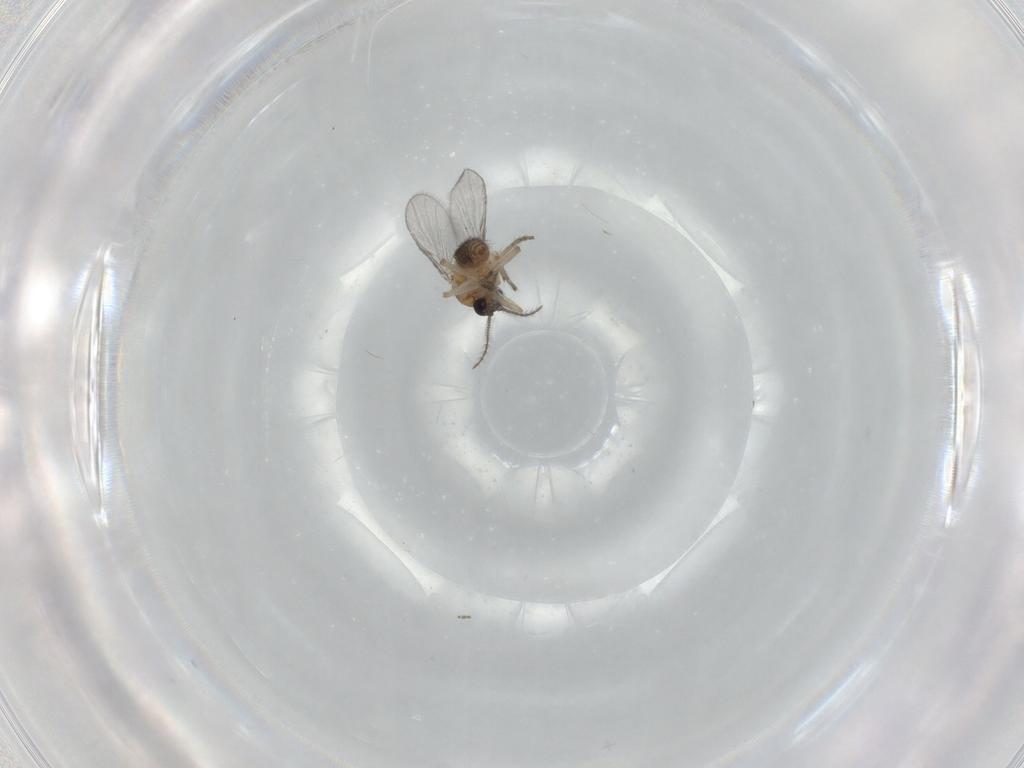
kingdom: Animalia
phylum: Arthropoda
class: Insecta
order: Diptera
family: Ceratopogonidae
